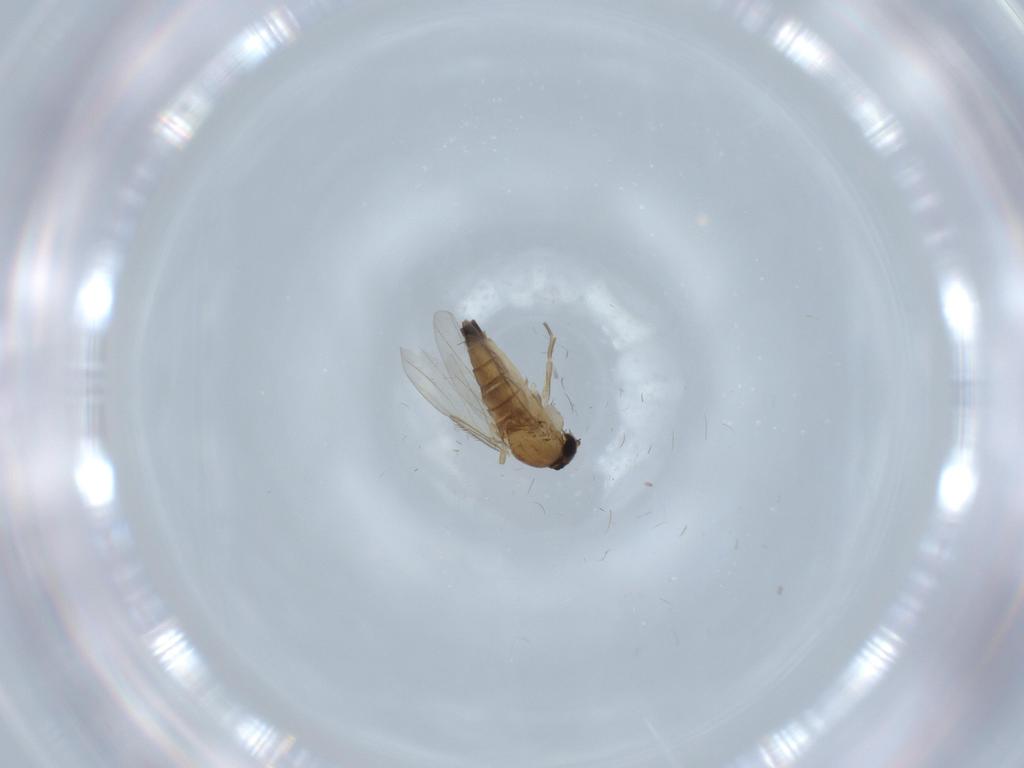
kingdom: Animalia
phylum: Arthropoda
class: Insecta
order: Diptera
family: Phoridae
